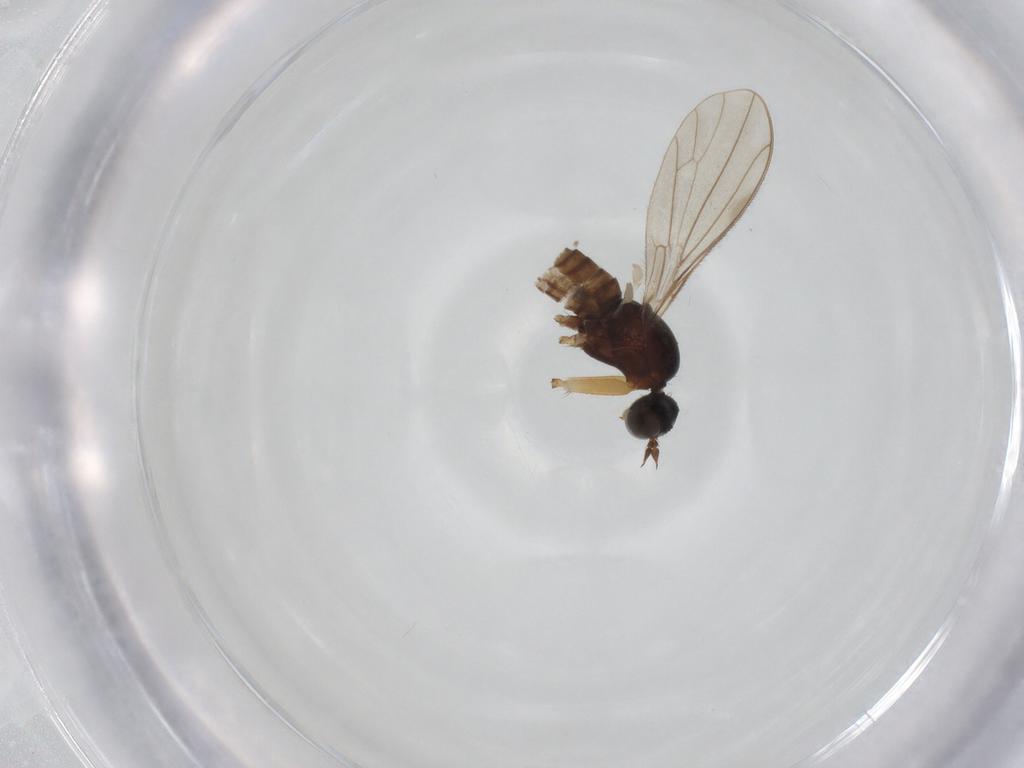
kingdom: Animalia
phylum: Arthropoda
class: Insecta
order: Diptera
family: Empididae
